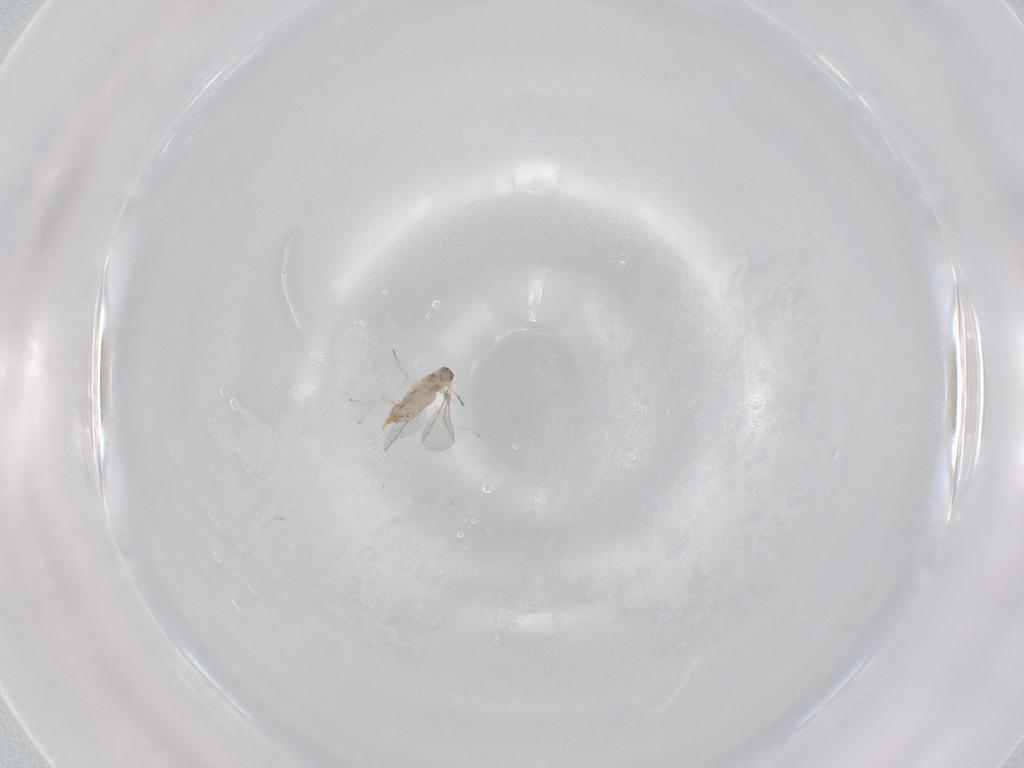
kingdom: Animalia
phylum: Arthropoda
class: Insecta
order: Diptera
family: Cecidomyiidae
